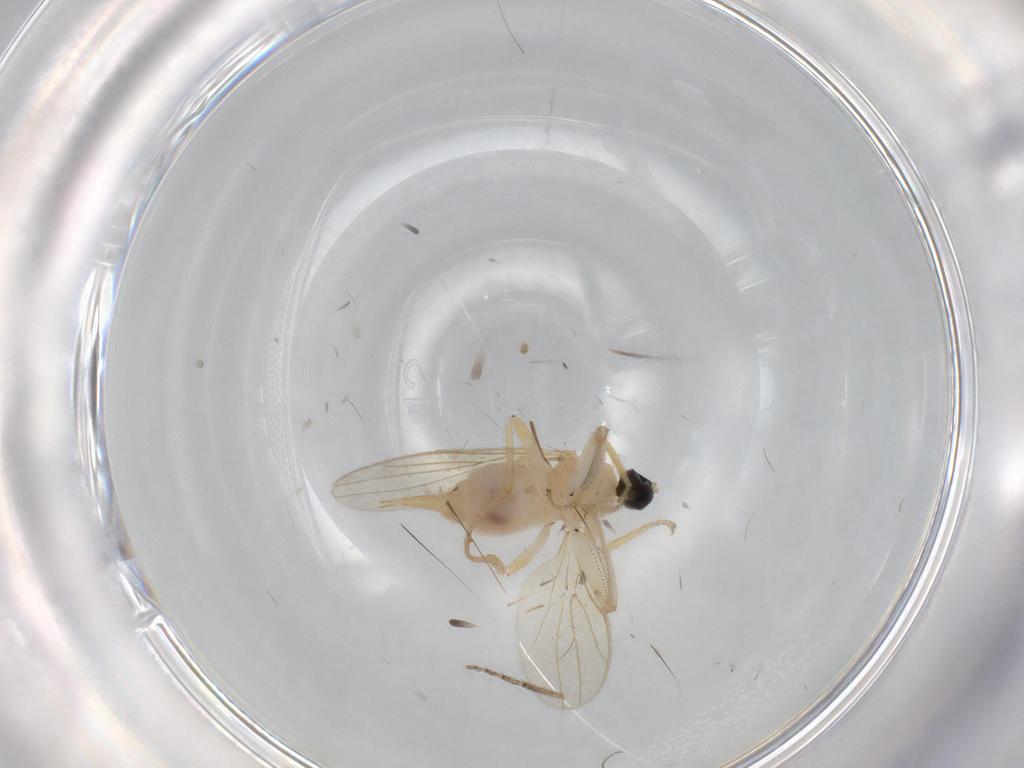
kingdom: Animalia
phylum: Arthropoda
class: Insecta
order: Diptera
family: Cecidomyiidae
